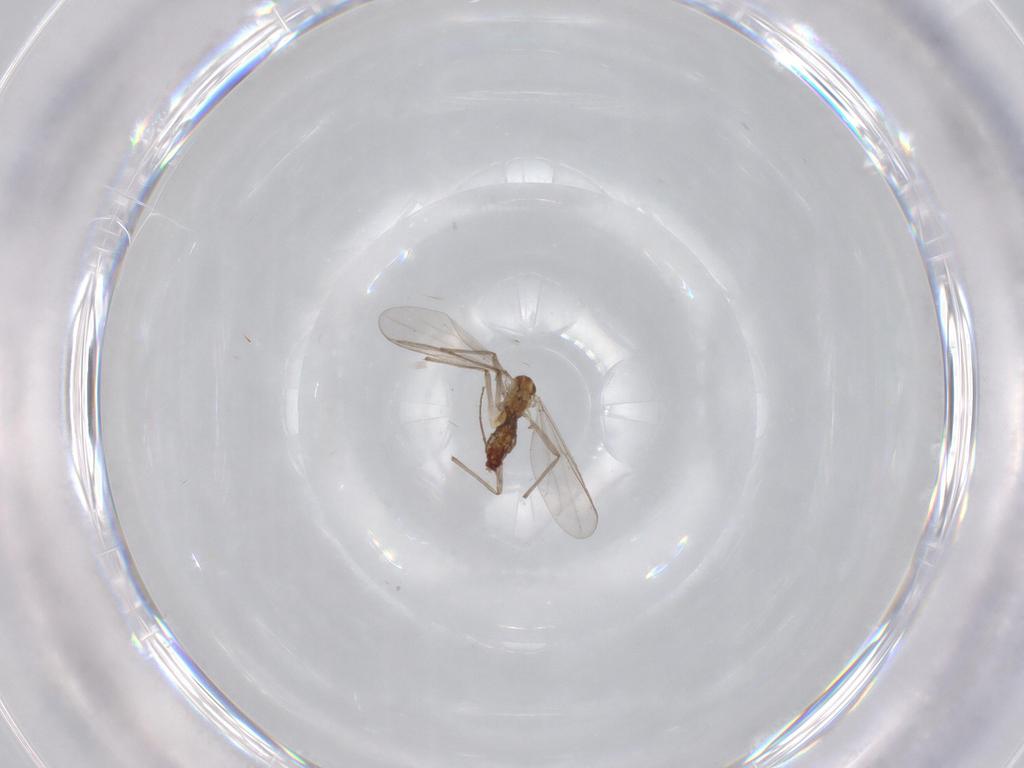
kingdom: Animalia
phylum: Arthropoda
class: Insecta
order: Diptera
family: Chironomidae
